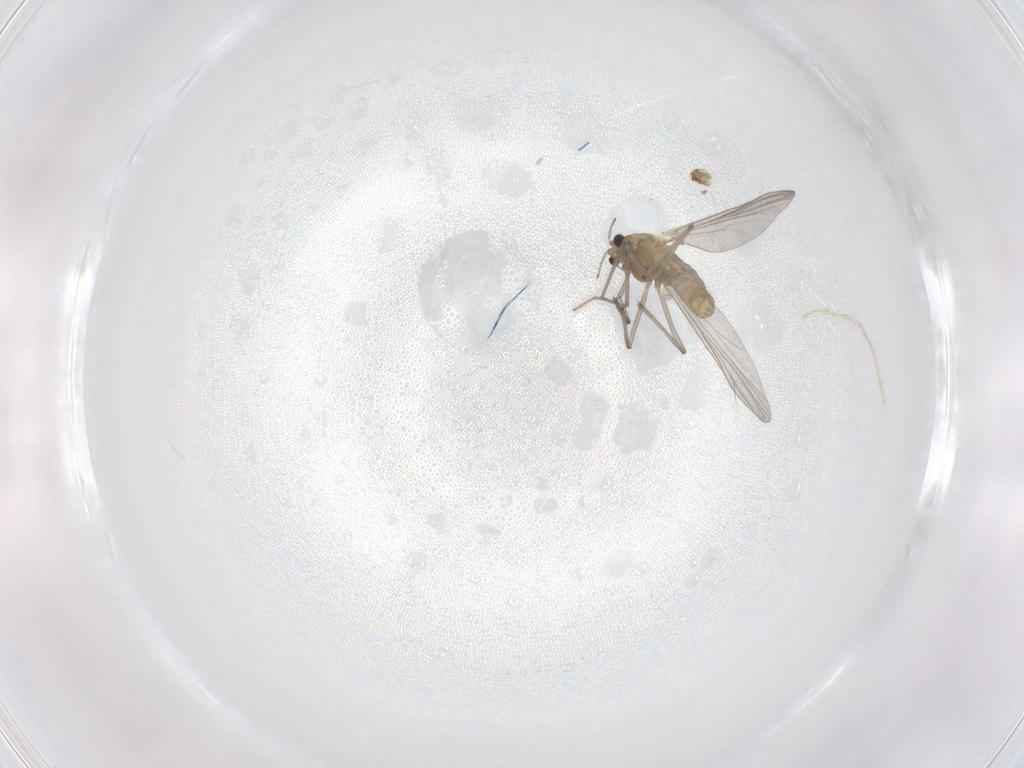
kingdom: Animalia
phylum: Arthropoda
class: Insecta
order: Diptera
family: Chironomidae
